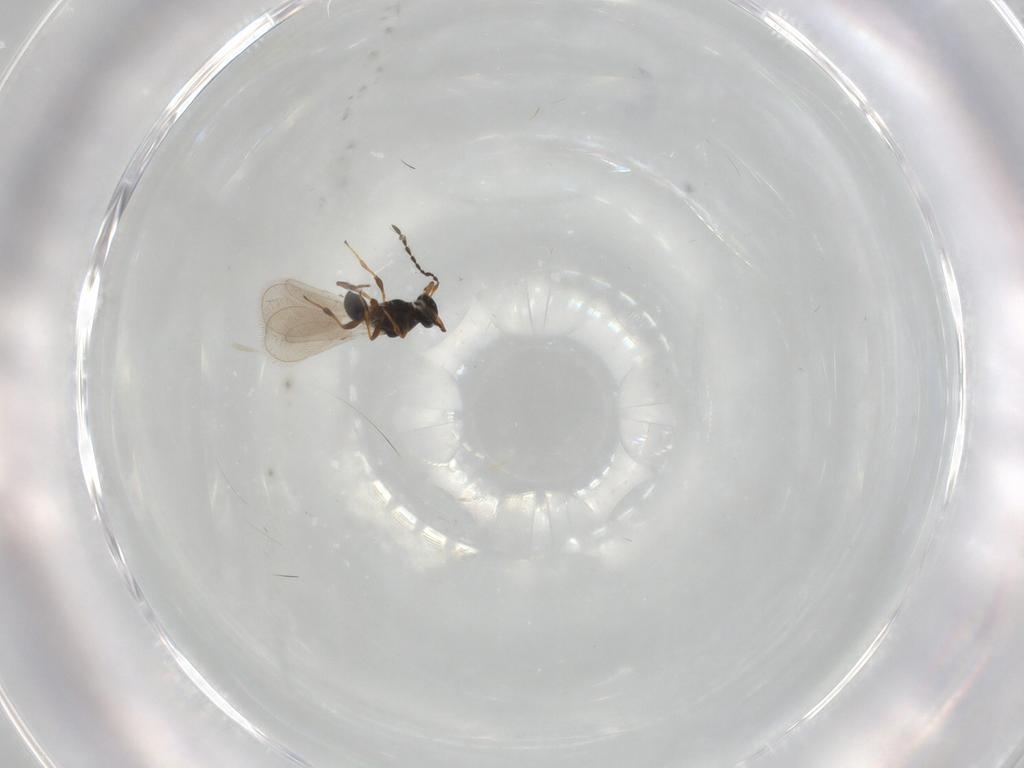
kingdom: Animalia
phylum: Arthropoda
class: Insecta
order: Hymenoptera
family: Platygastridae
